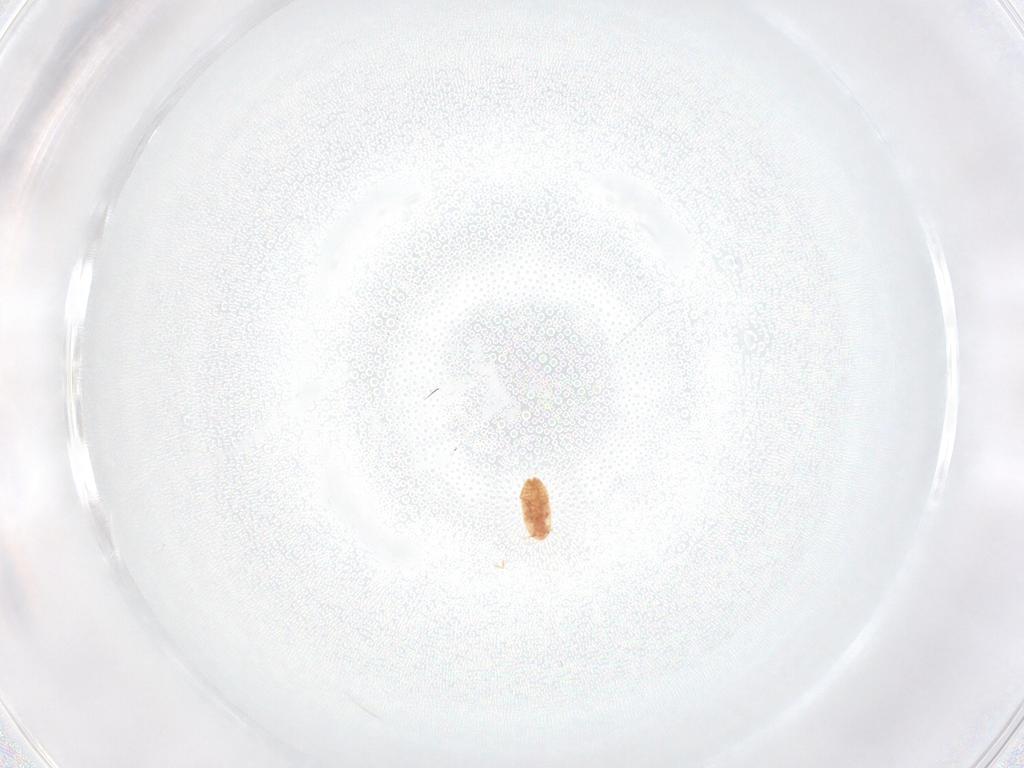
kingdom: Animalia
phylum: Arthropoda
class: Insecta
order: Hemiptera
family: Coccidae
